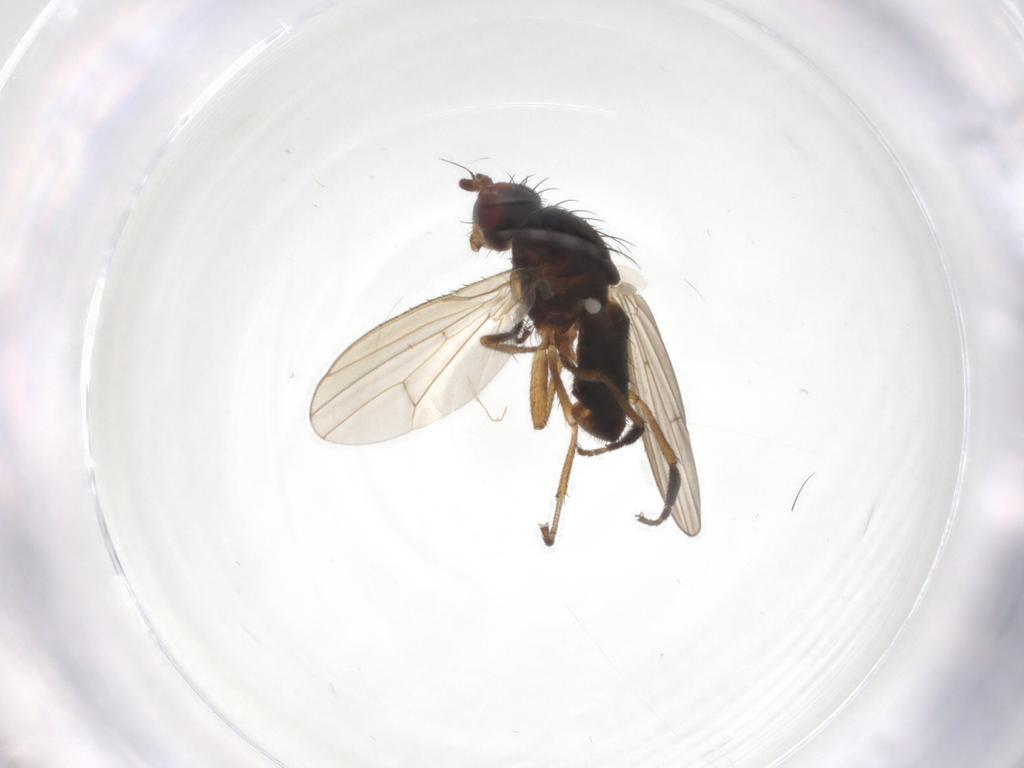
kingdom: Animalia
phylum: Arthropoda
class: Insecta
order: Diptera
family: Heleomyzidae
